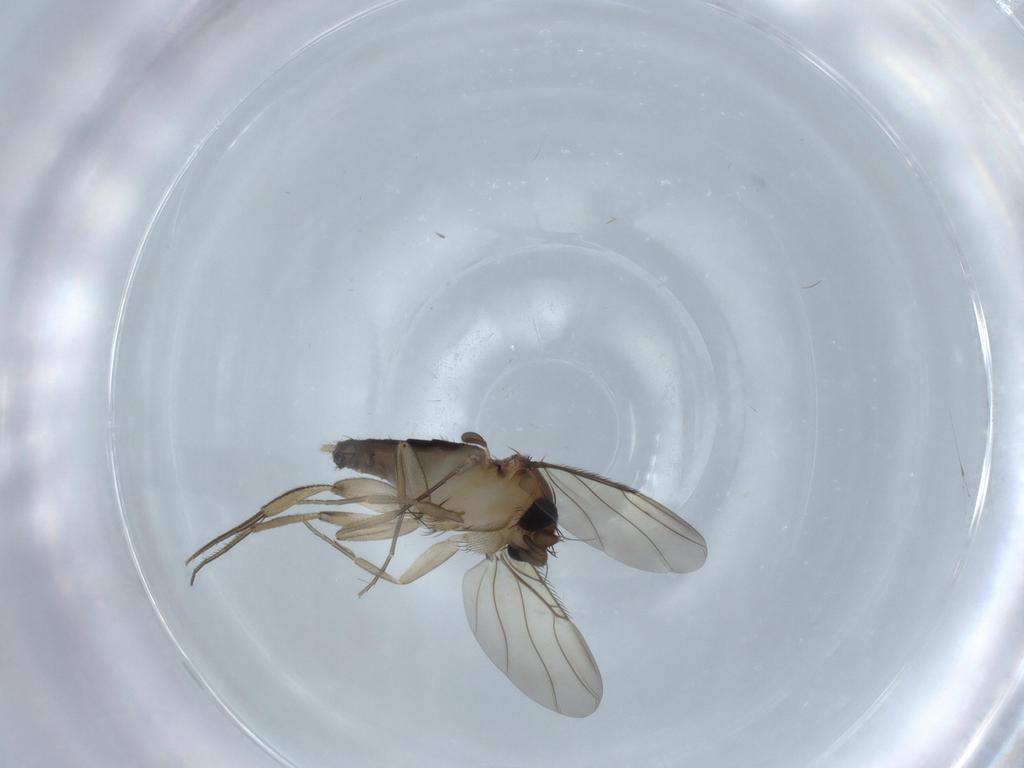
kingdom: Animalia
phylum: Arthropoda
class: Insecta
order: Diptera
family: Phoridae
